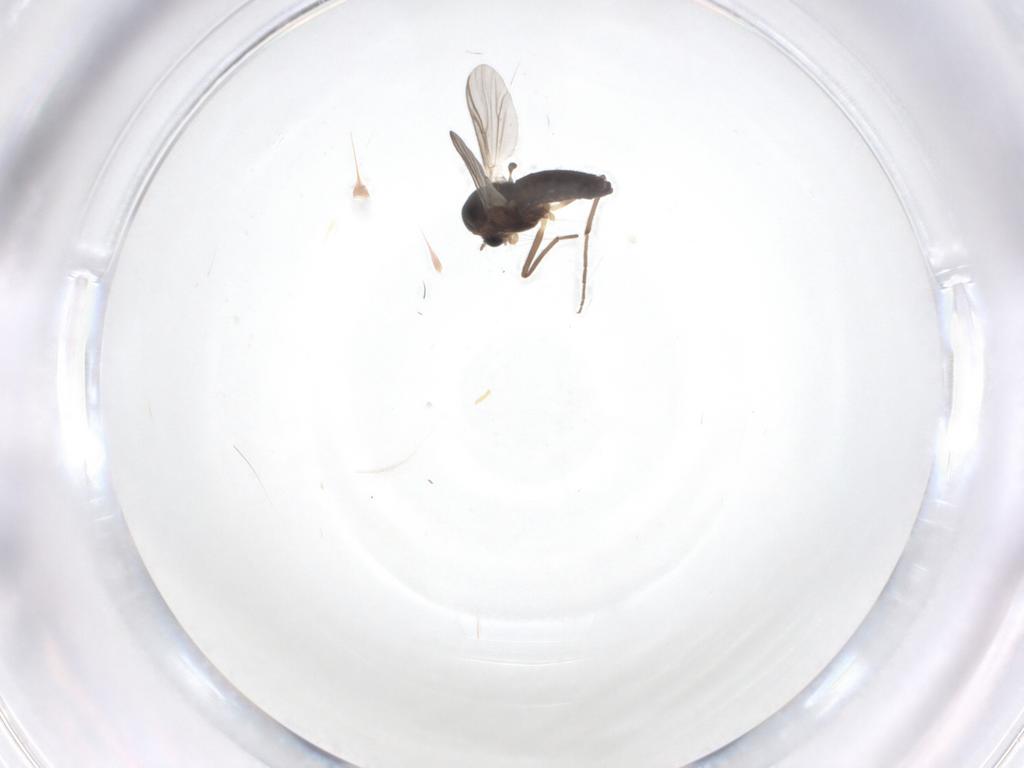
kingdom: Animalia
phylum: Arthropoda
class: Insecta
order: Diptera
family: Chironomidae
